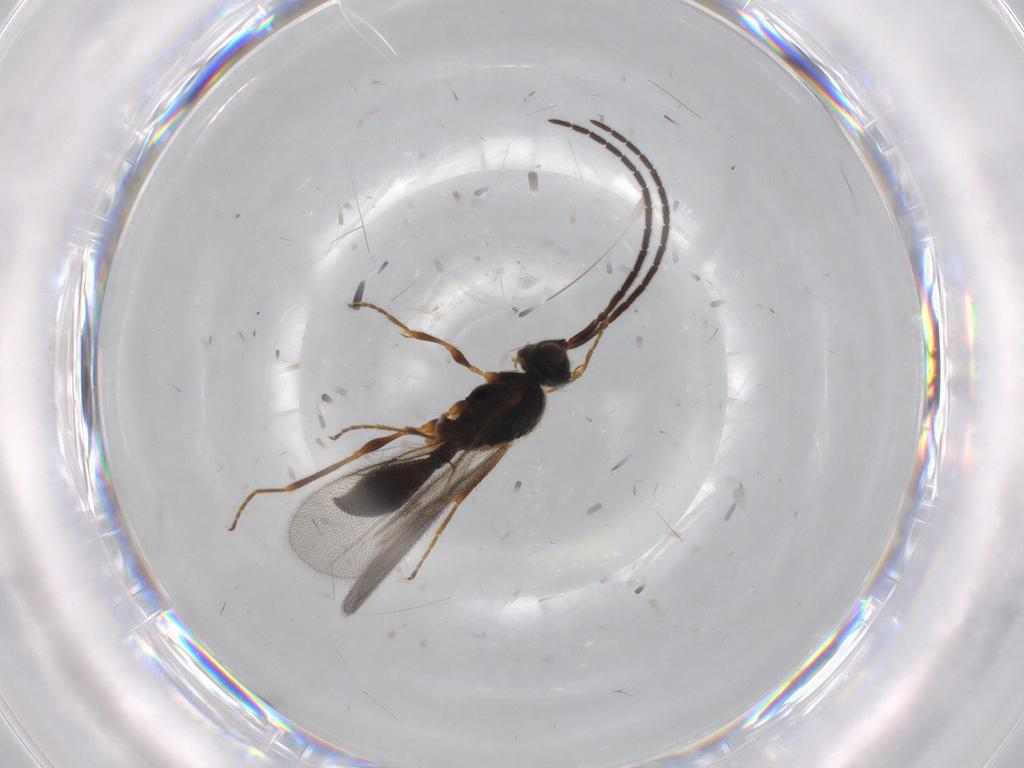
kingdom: Animalia
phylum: Arthropoda
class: Insecta
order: Hymenoptera
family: Diapriidae
